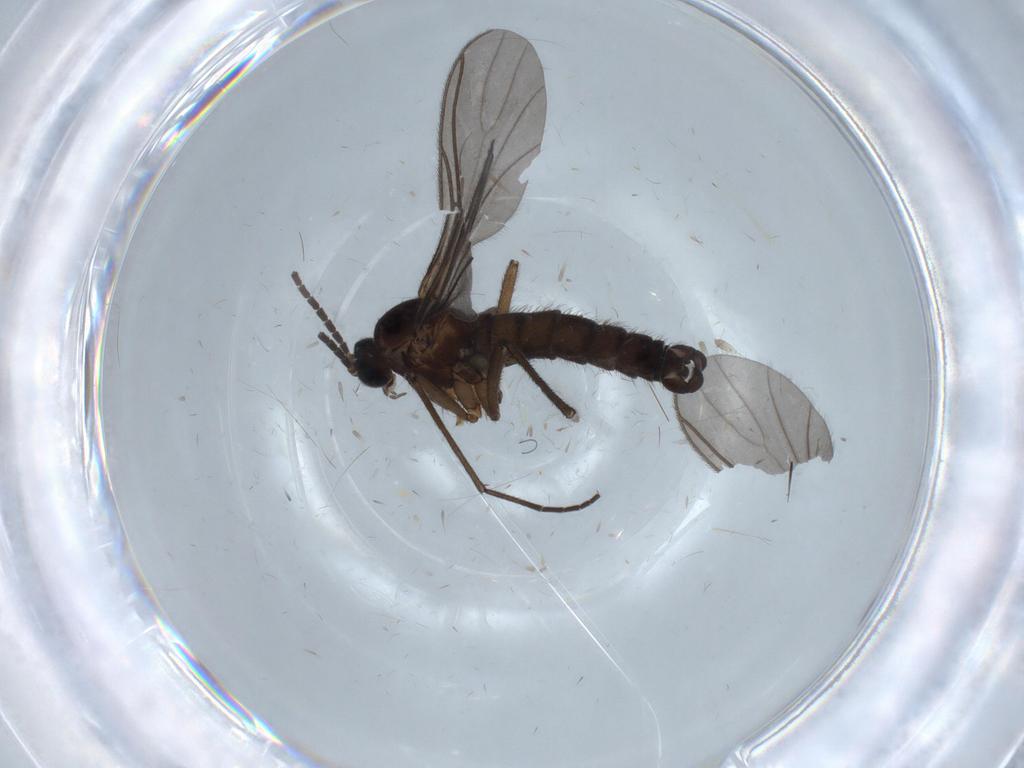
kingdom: Animalia
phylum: Arthropoda
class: Insecta
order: Diptera
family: Sciaridae
